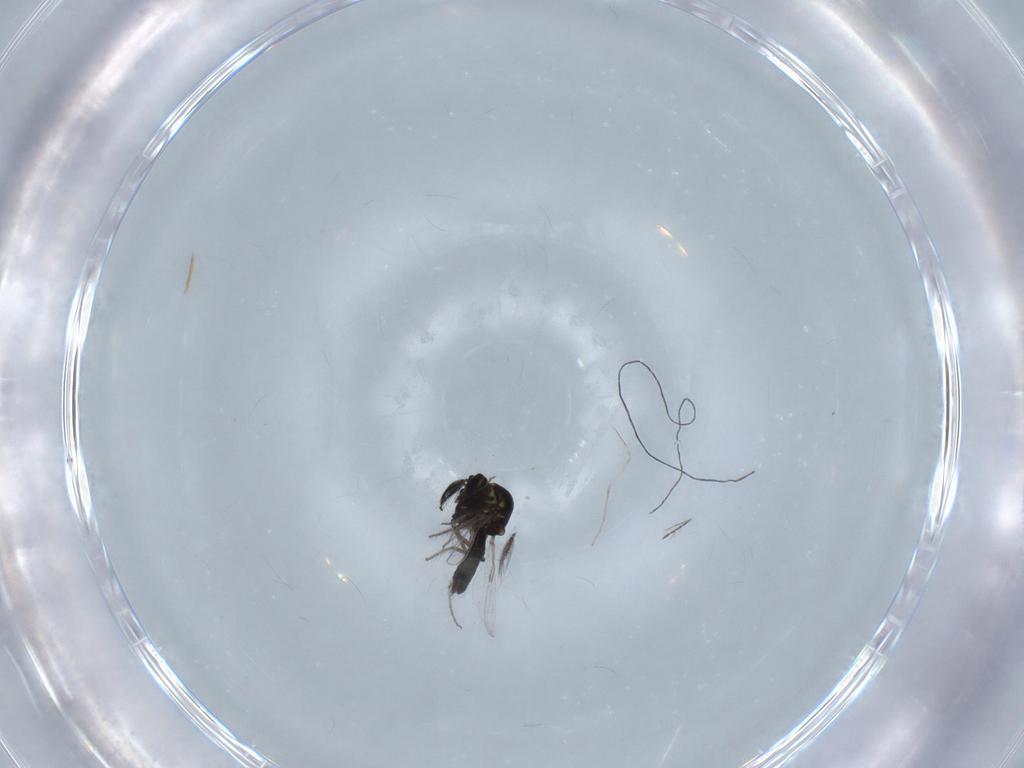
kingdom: Animalia
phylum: Arthropoda
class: Insecta
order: Diptera
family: Ceratopogonidae
